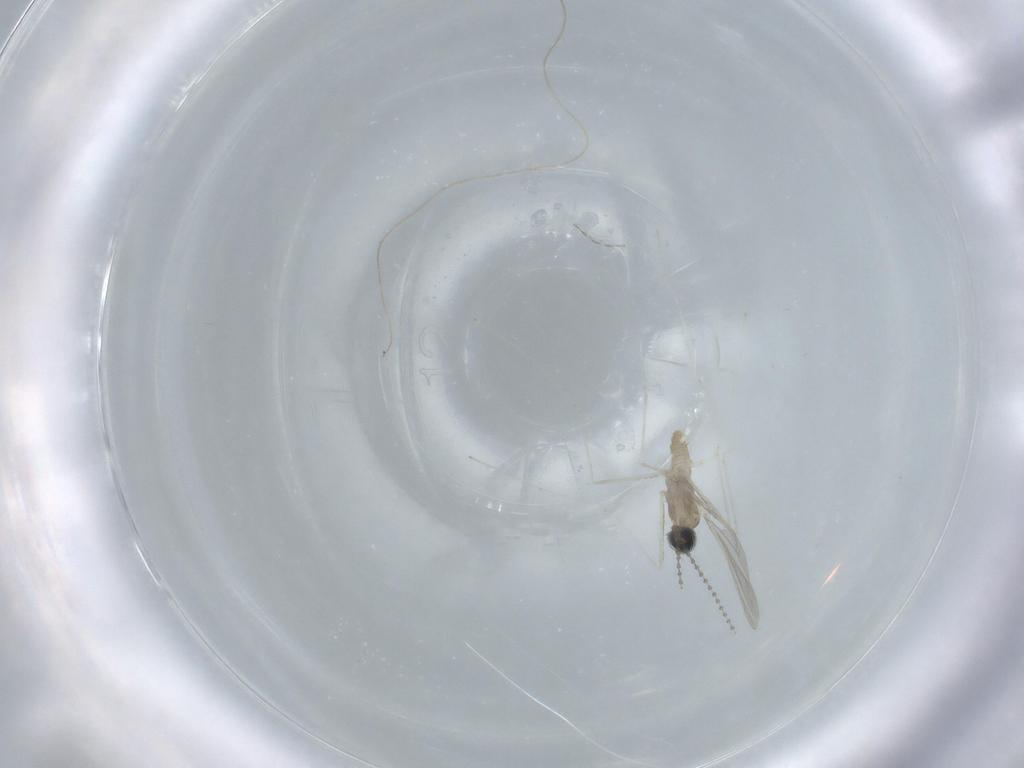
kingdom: Animalia
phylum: Arthropoda
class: Insecta
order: Diptera
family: Cecidomyiidae
